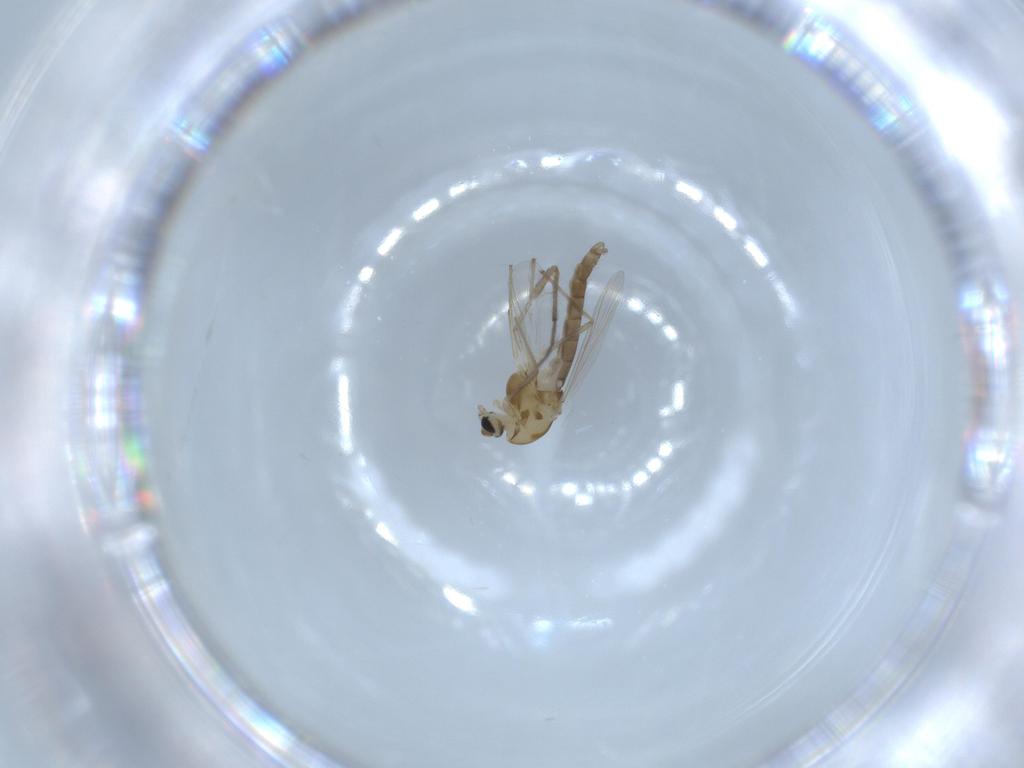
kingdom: Animalia
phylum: Arthropoda
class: Insecta
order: Diptera
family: Chironomidae
